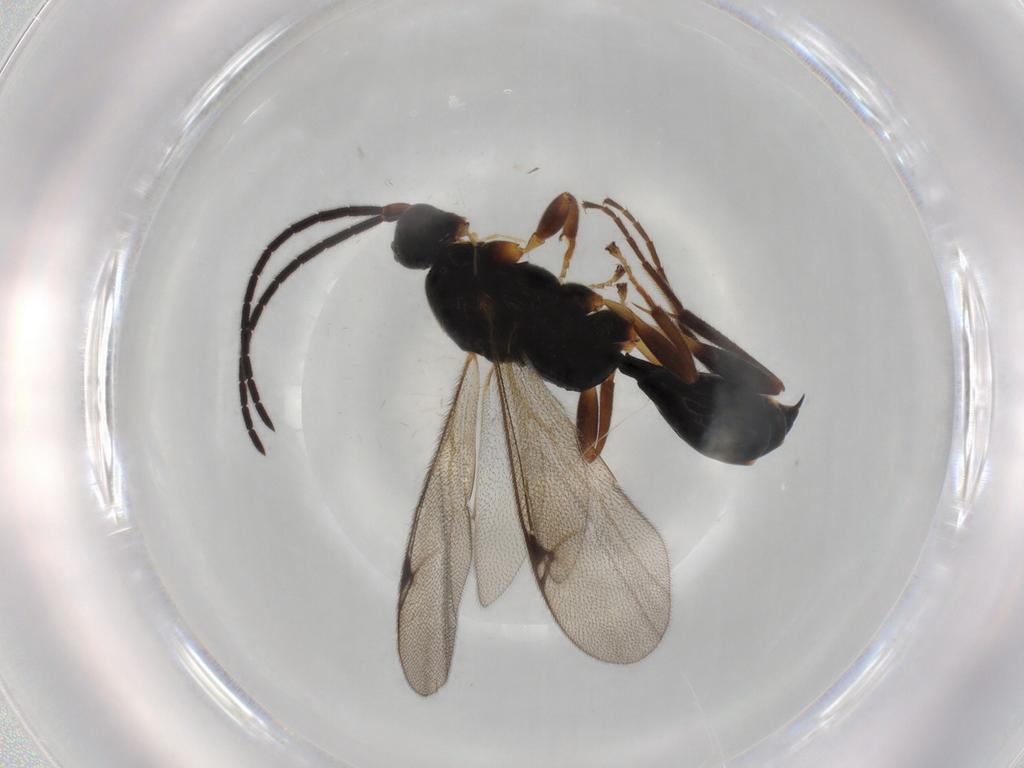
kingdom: Animalia
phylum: Arthropoda
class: Insecta
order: Hymenoptera
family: Proctotrupidae
